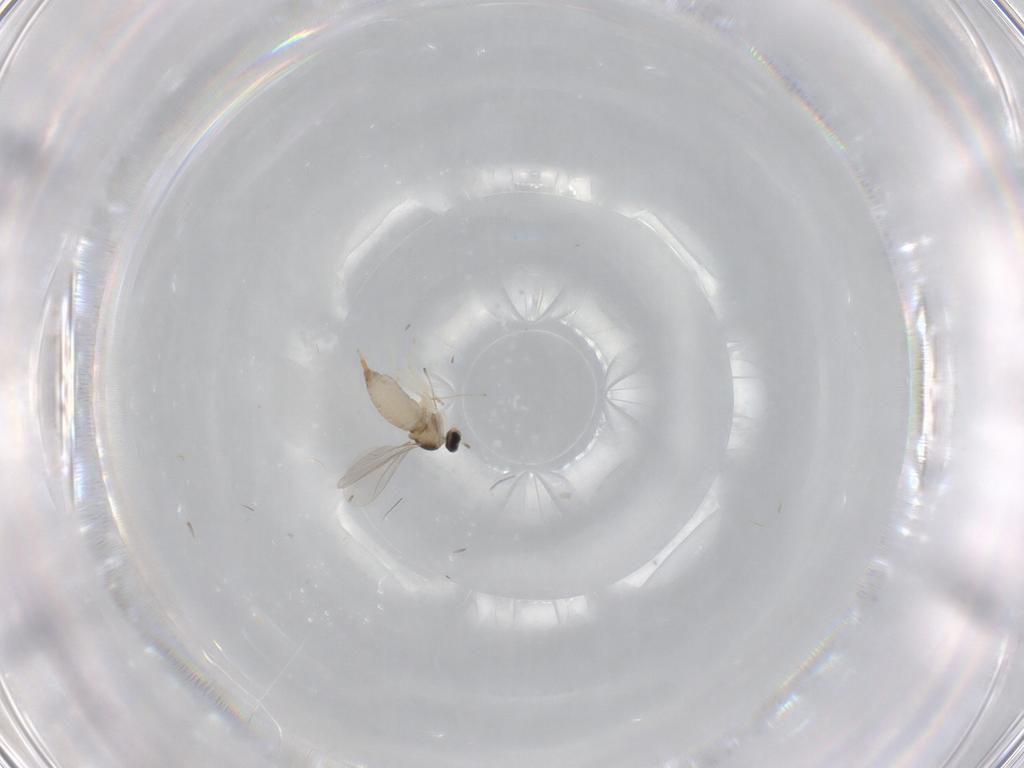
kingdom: Animalia
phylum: Arthropoda
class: Insecta
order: Diptera
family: Cecidomyiidae
